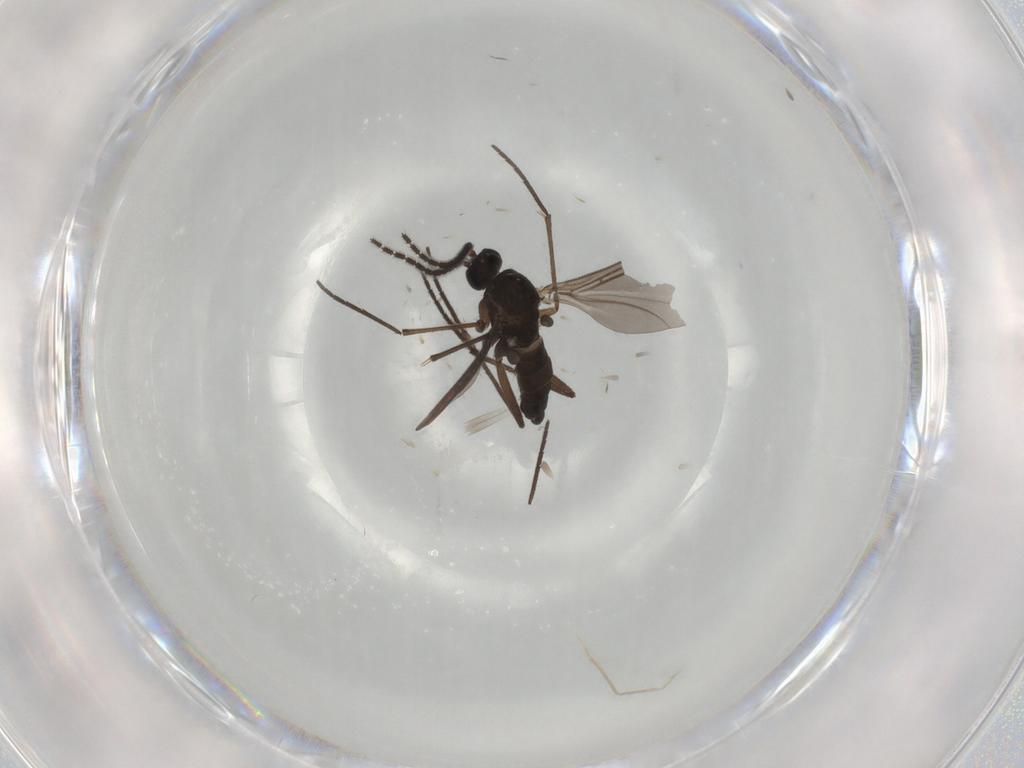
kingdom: Animalia
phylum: Arthropoda
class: Insecta
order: Diptera
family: Sciaridae
